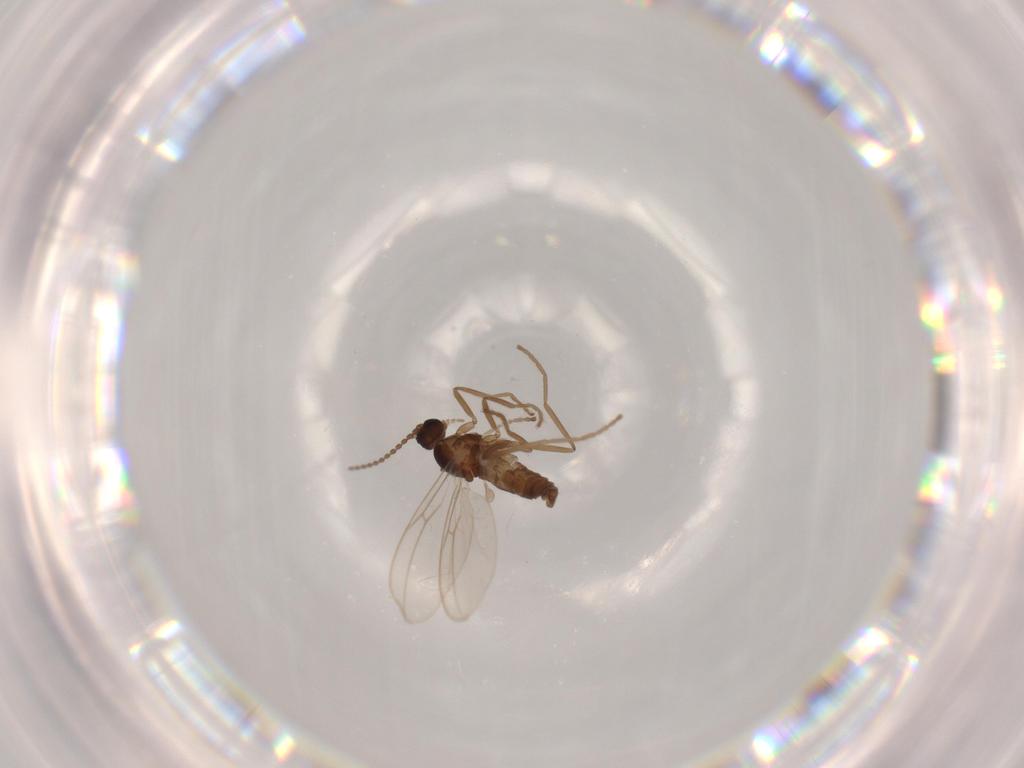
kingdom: Animalia
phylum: Arthropoda
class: Insecta
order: Diptera
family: Cecidomyiidae
